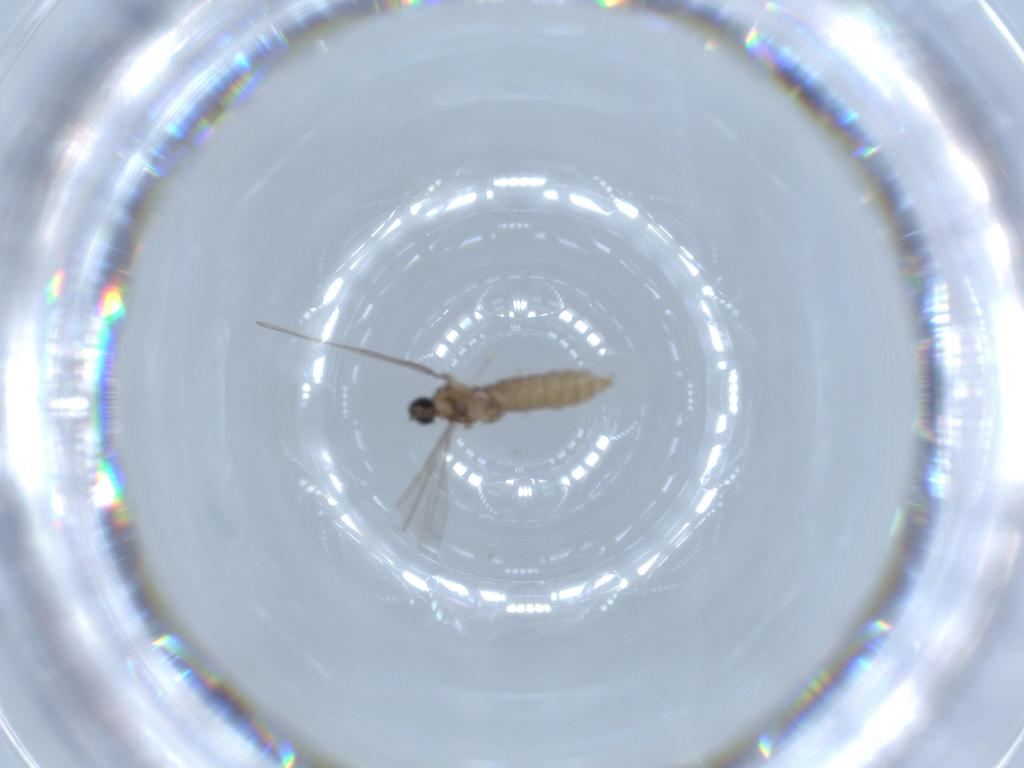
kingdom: Animalia
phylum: Arthropoda
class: Insecta
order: Diptera
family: Cecidomyiidae
